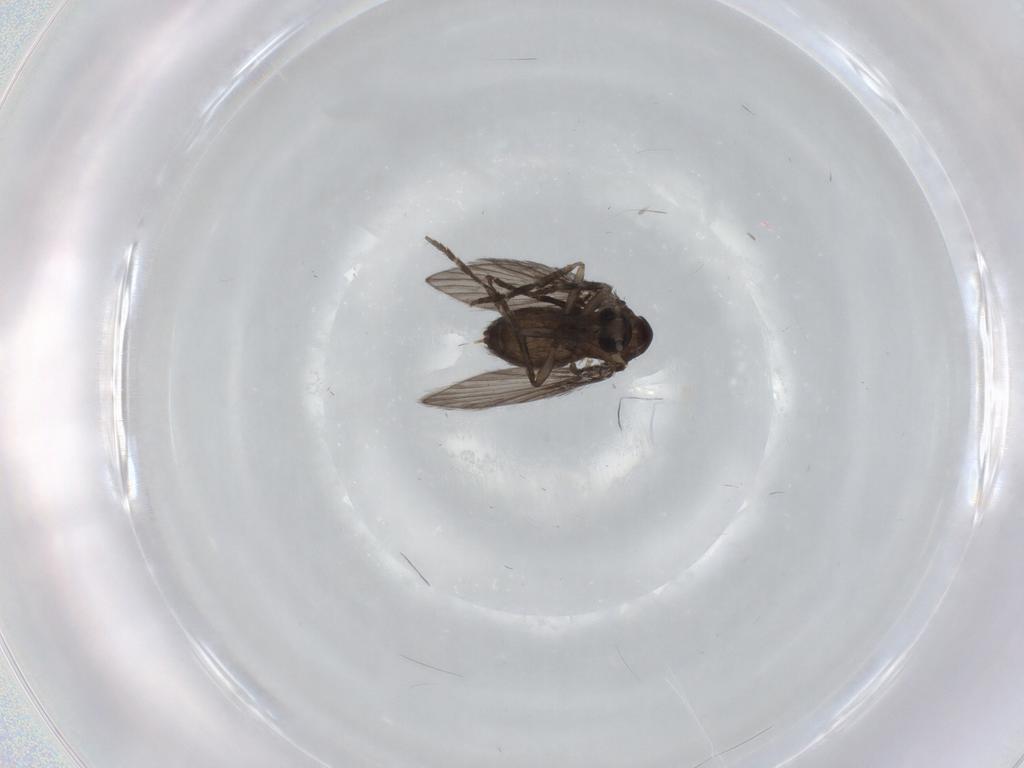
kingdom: Animalia
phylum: Arthropoda
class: Insecta
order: Diptera
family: Psychodidae
